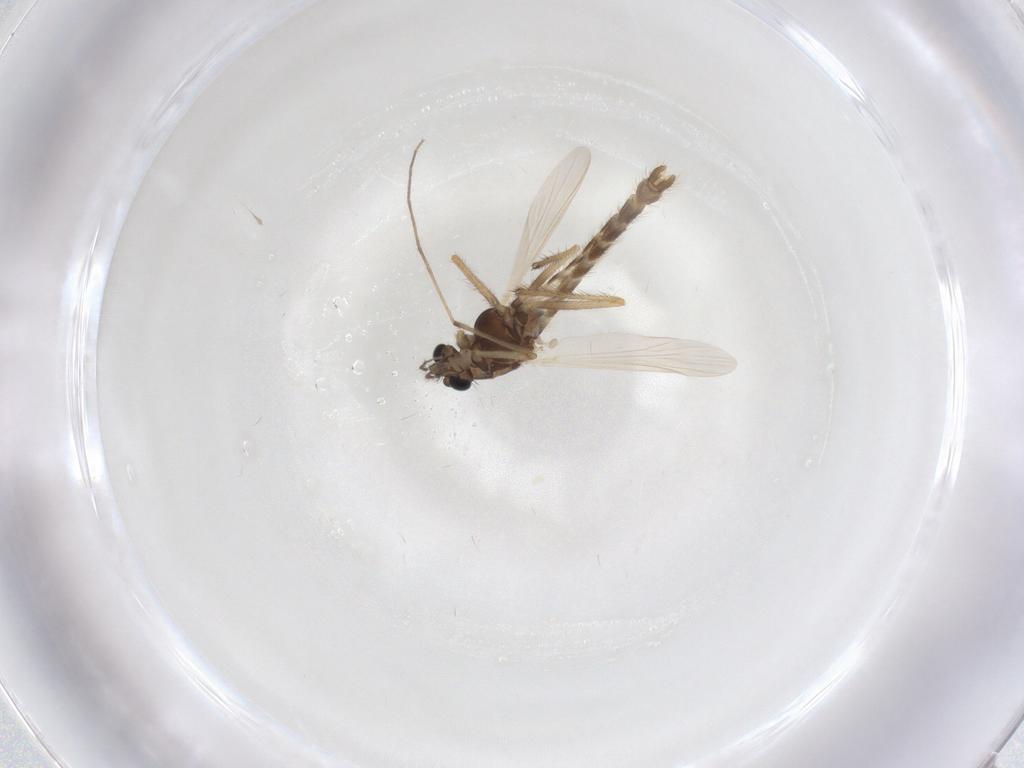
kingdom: Animalia
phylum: Arthropoda
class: Insecta
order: Diptera
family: Chironomidae
